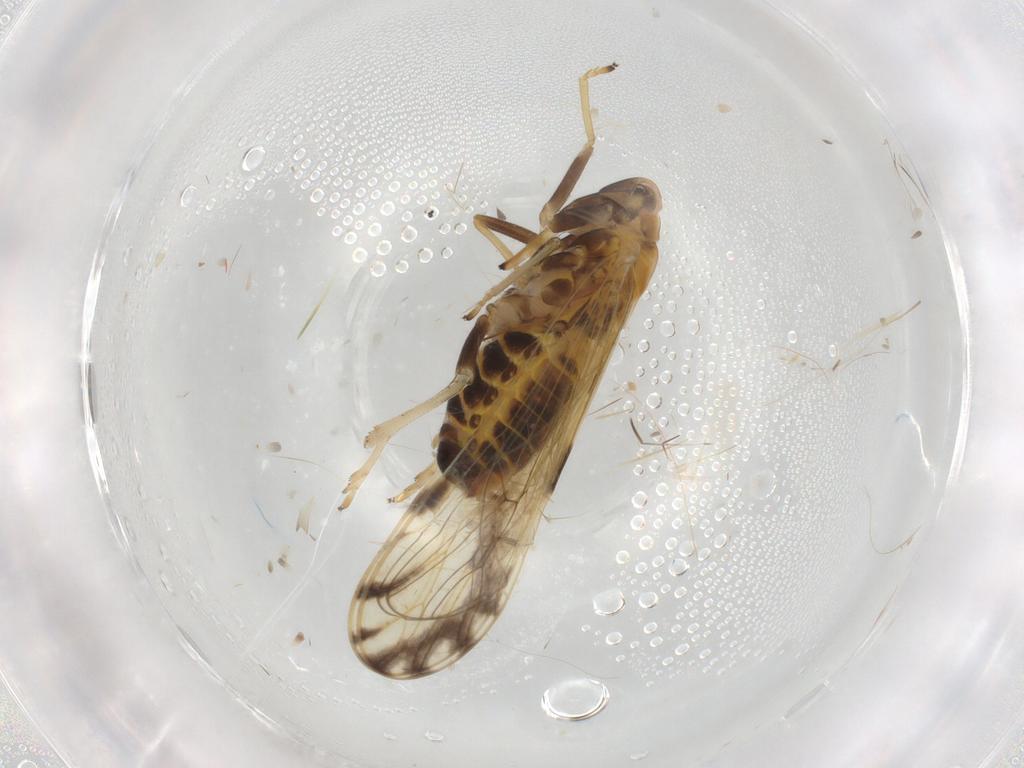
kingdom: Animalia
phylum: Arthropoda
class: Insecta
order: Hemiptera
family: Delphacidae
